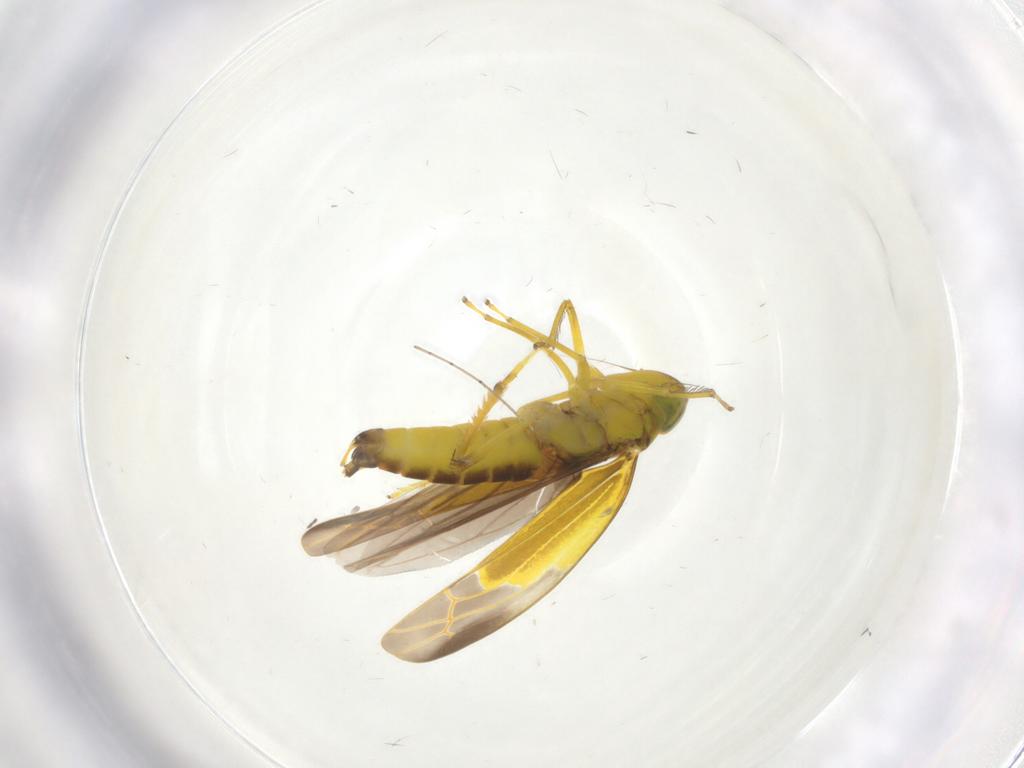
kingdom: Animalia
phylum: Arthropoda
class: Insecta
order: Hemiptera
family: Cicadellidae
